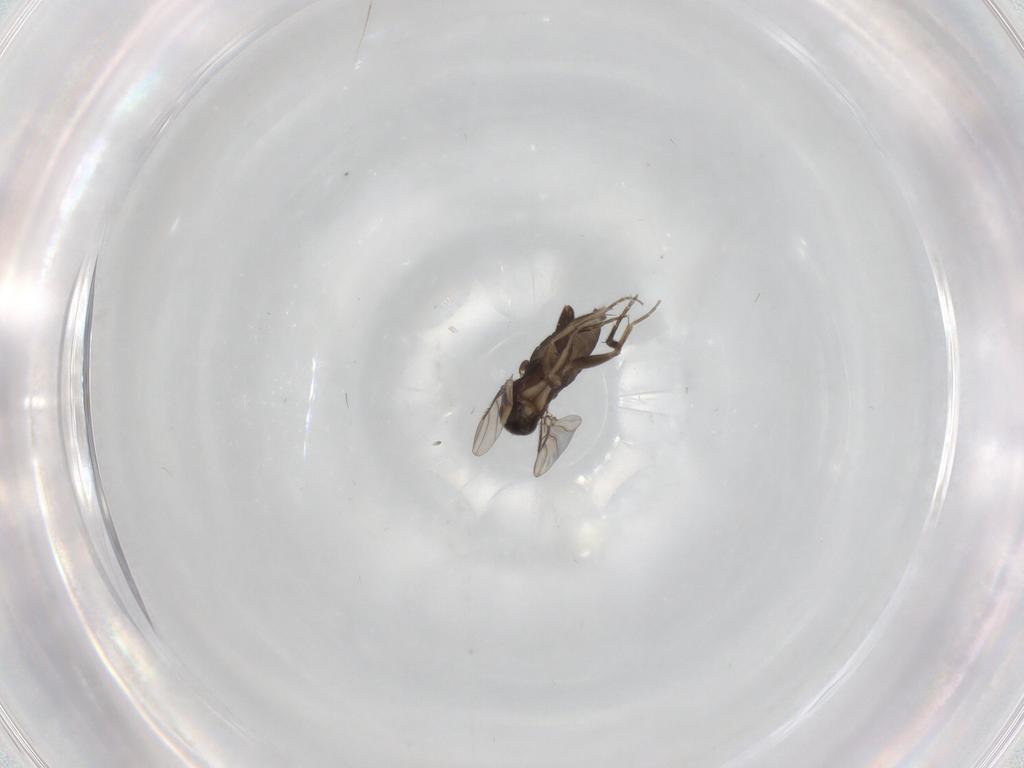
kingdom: Animalia
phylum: Arthropoda
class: Insecta
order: Diptera
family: Phoridae
